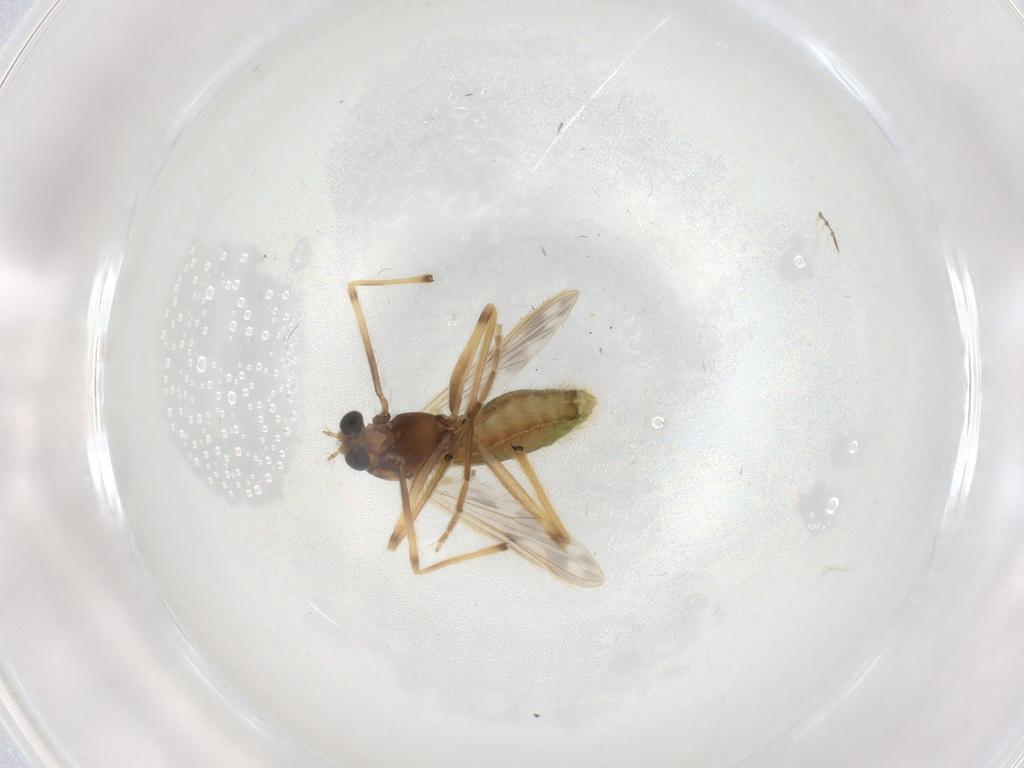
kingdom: Animalia
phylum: Arthropoda
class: Insecta
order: Diptera
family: Chironomidae
